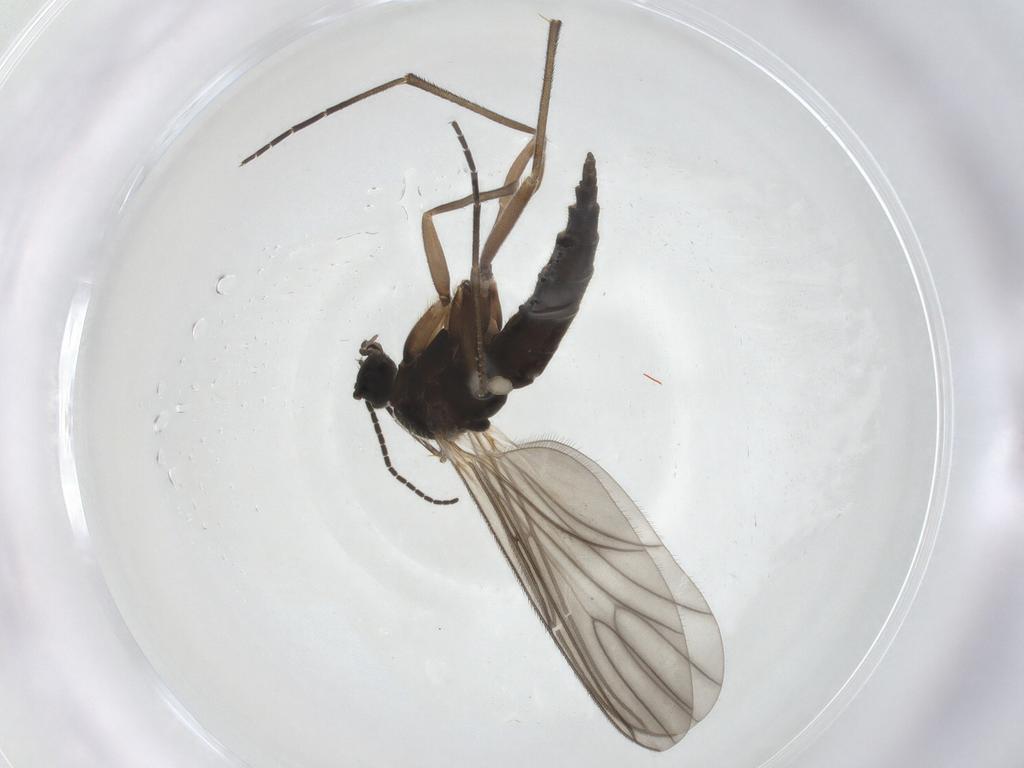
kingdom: Animalia
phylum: Arthropoda
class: Insecta
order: Diptera
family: Sciaridae
